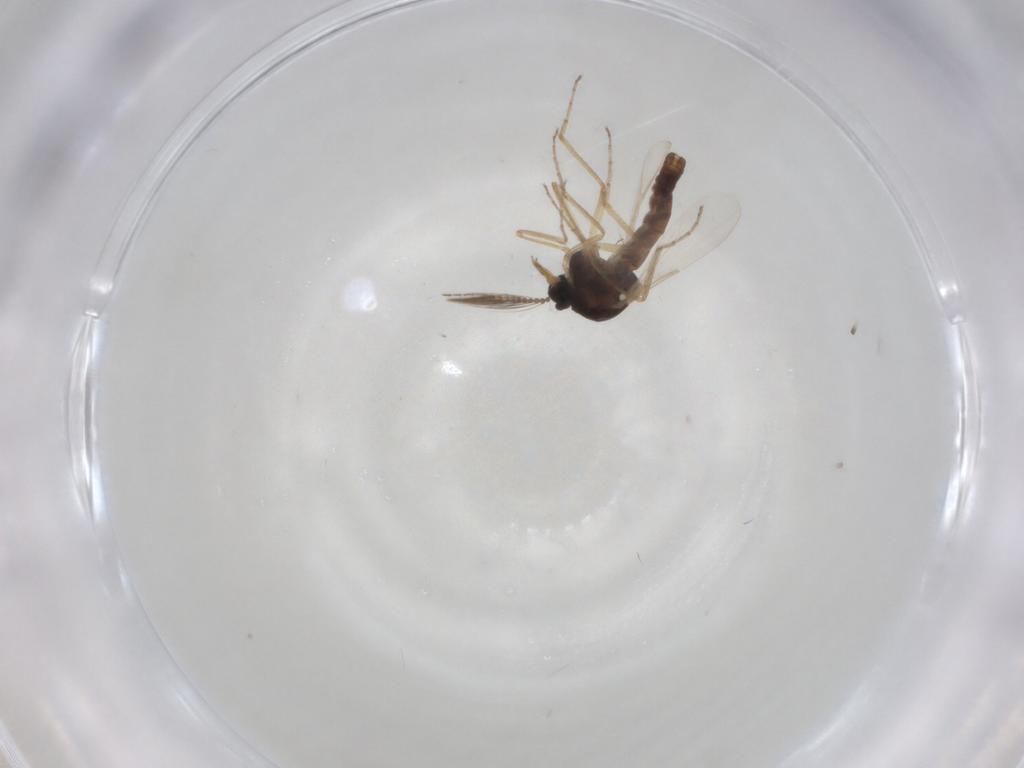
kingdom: Animalia
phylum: Arthropoda
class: Insecta
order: Diptera
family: Ceratopogonidae
